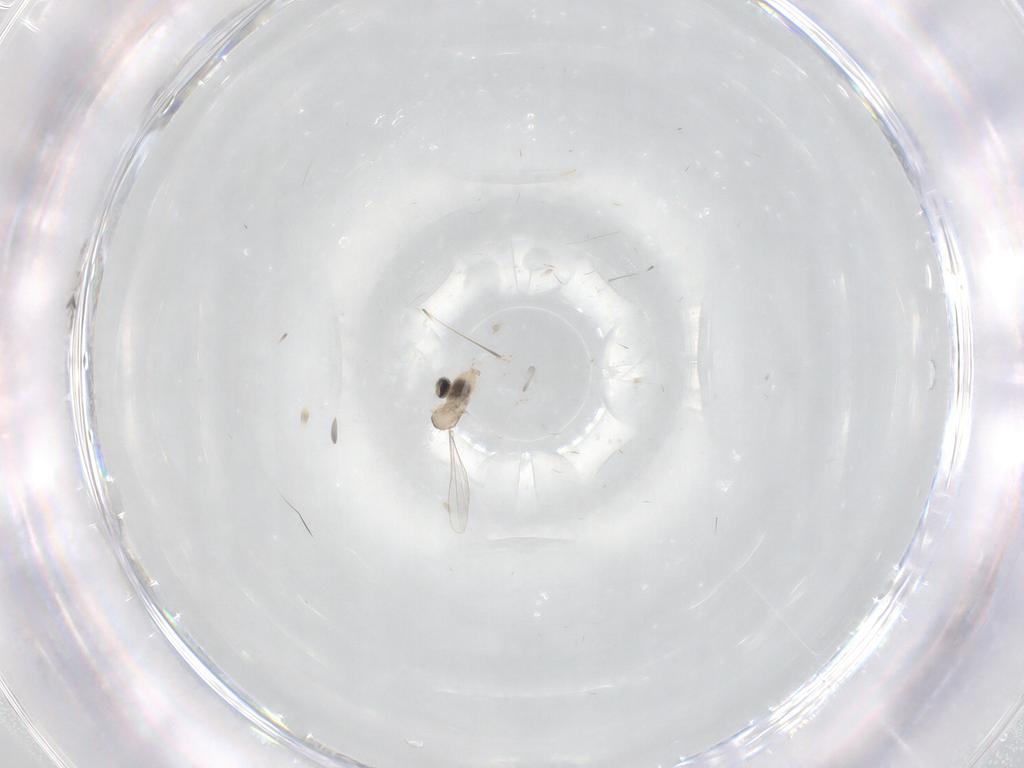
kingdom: Animalia
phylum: Arthropoda
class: Insecta
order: Diptera
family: Cecidomyiidae
